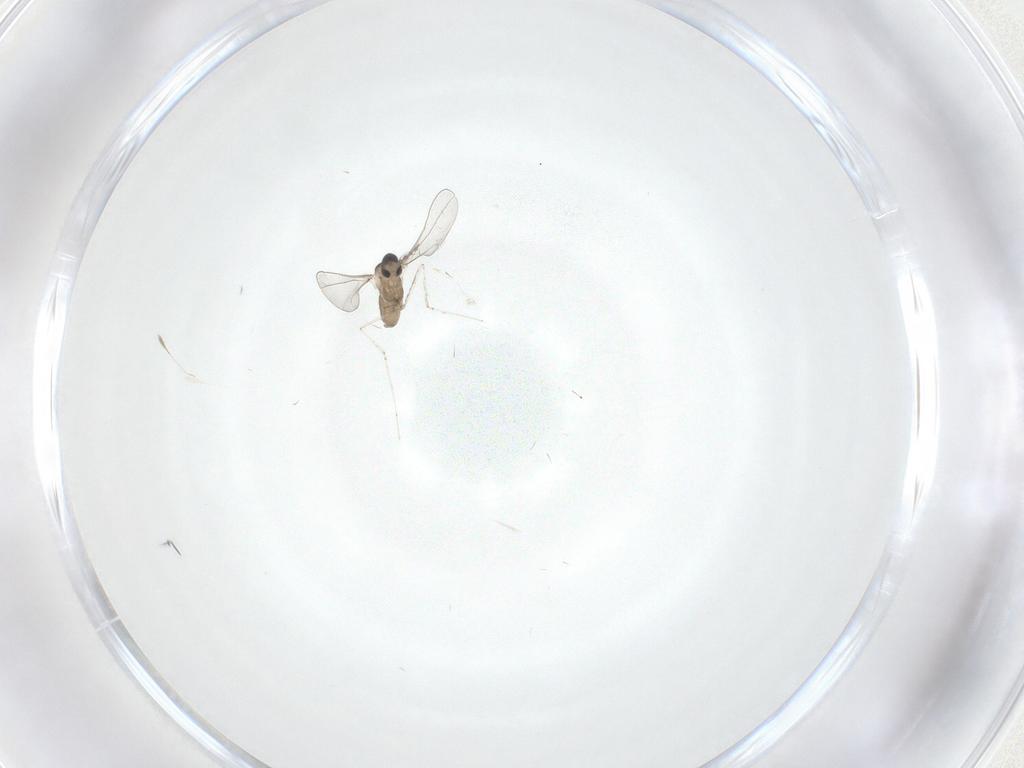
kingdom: Animalia
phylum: Arthropoda
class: Insecta
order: Diptera
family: Cecidomyiidae
